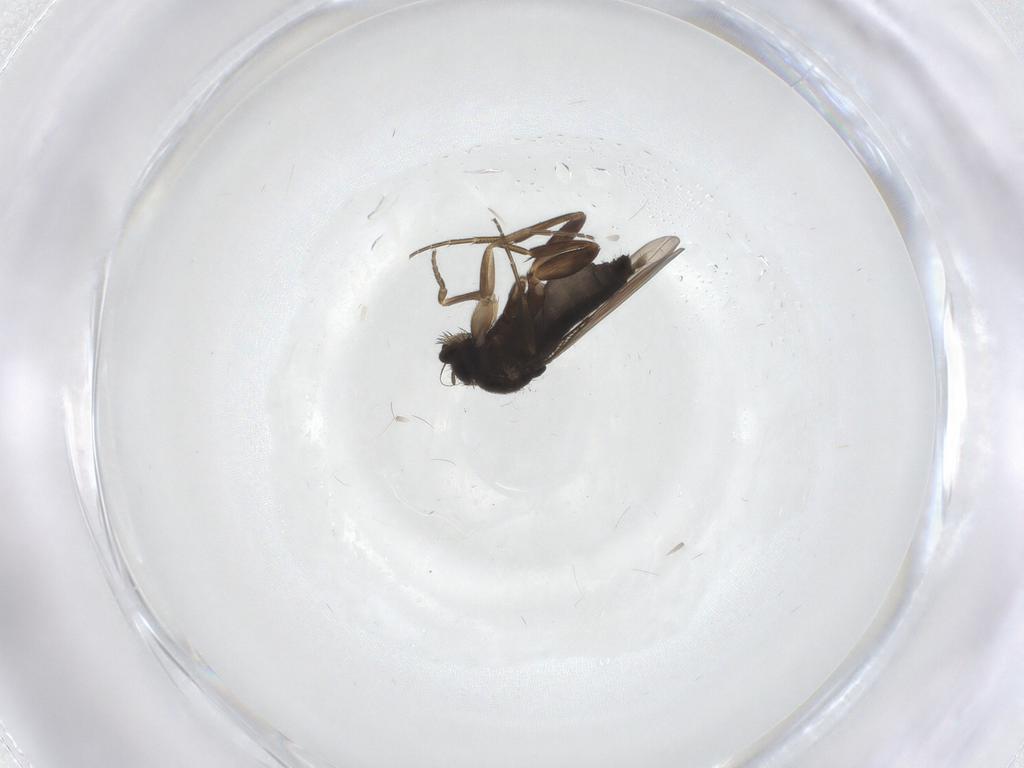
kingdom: Animalia
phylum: Arthropoda
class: Insecta
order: Diptera
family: Phoridae
